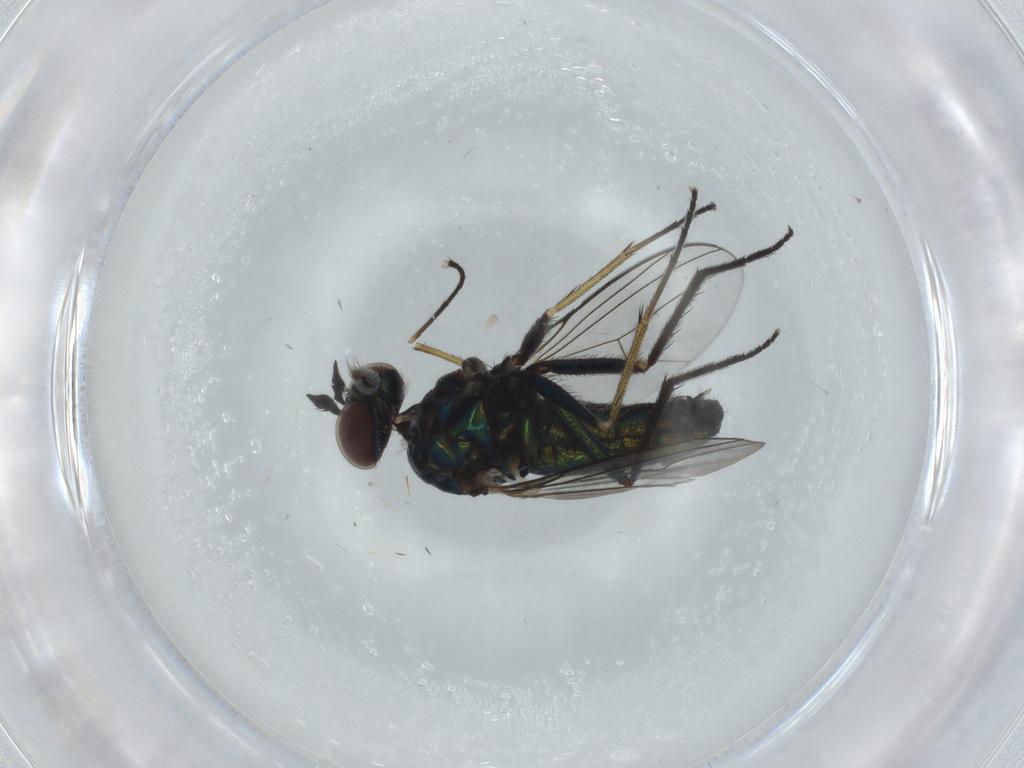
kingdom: Animalia
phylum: Arthropoda
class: Insecta
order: Diptera
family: Dolichopodidae
